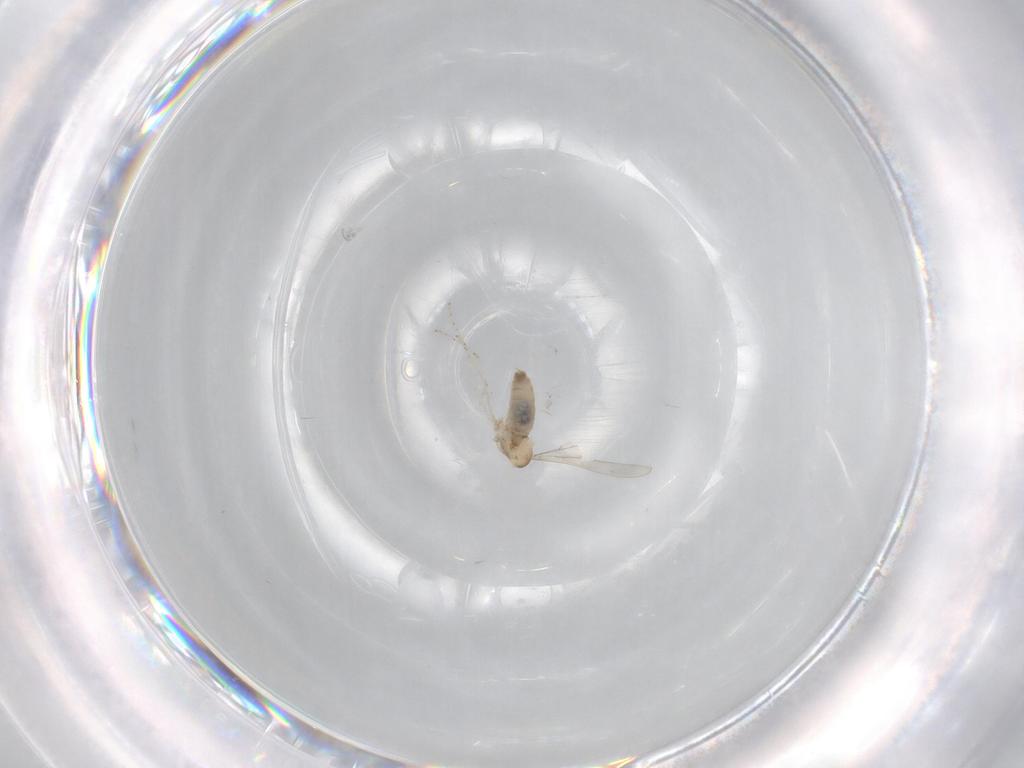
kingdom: Animalia
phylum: Arthropoda
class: Insecta
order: Diptera
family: Cecidomyiidae
